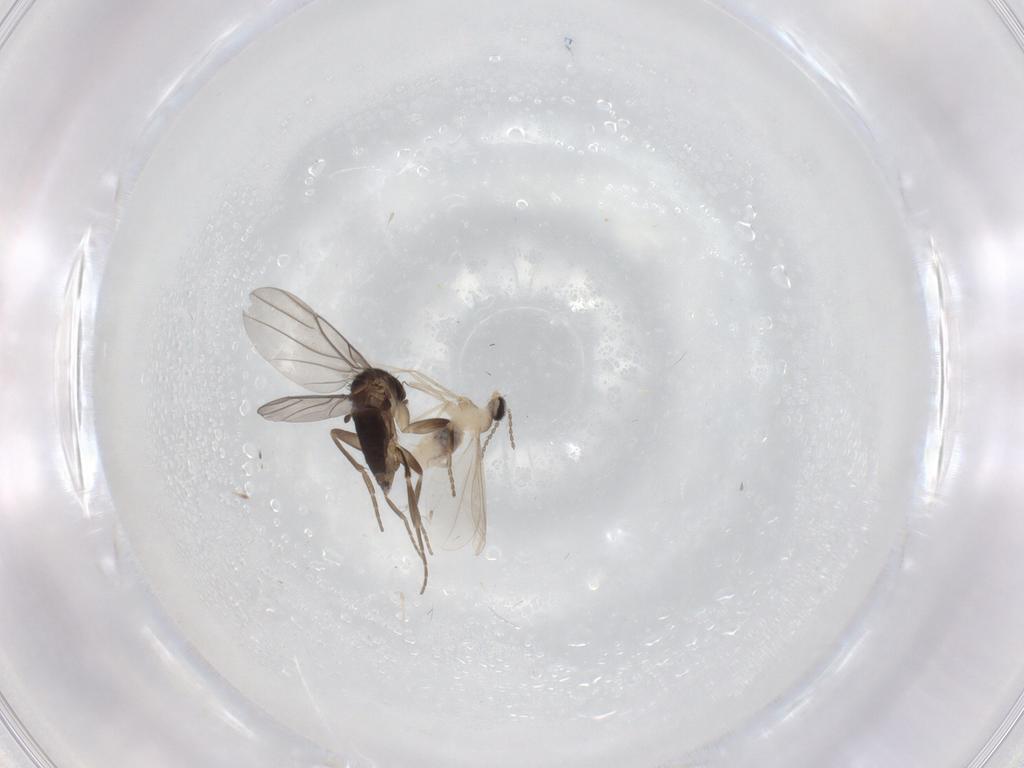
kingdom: Animalia
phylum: Arthropoda
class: Insecta
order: Diptera
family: Cecidomyiidae
